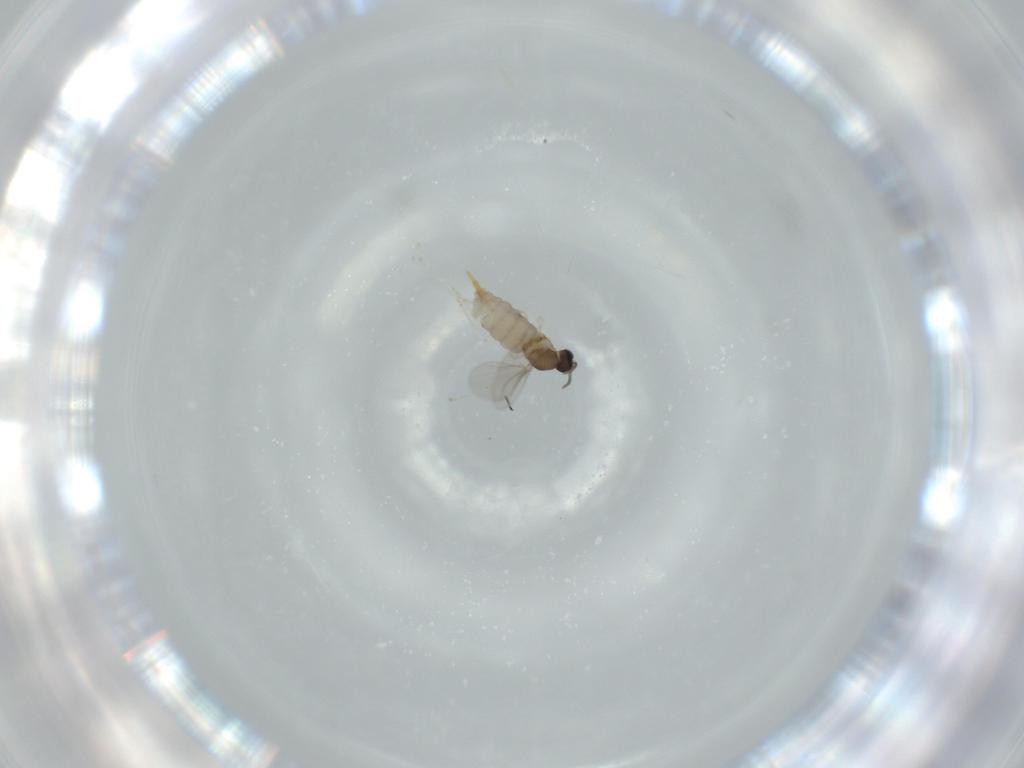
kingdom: Animalia
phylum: Arthropoda
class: Insecta
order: Diptera
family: Cecidomyiidae
